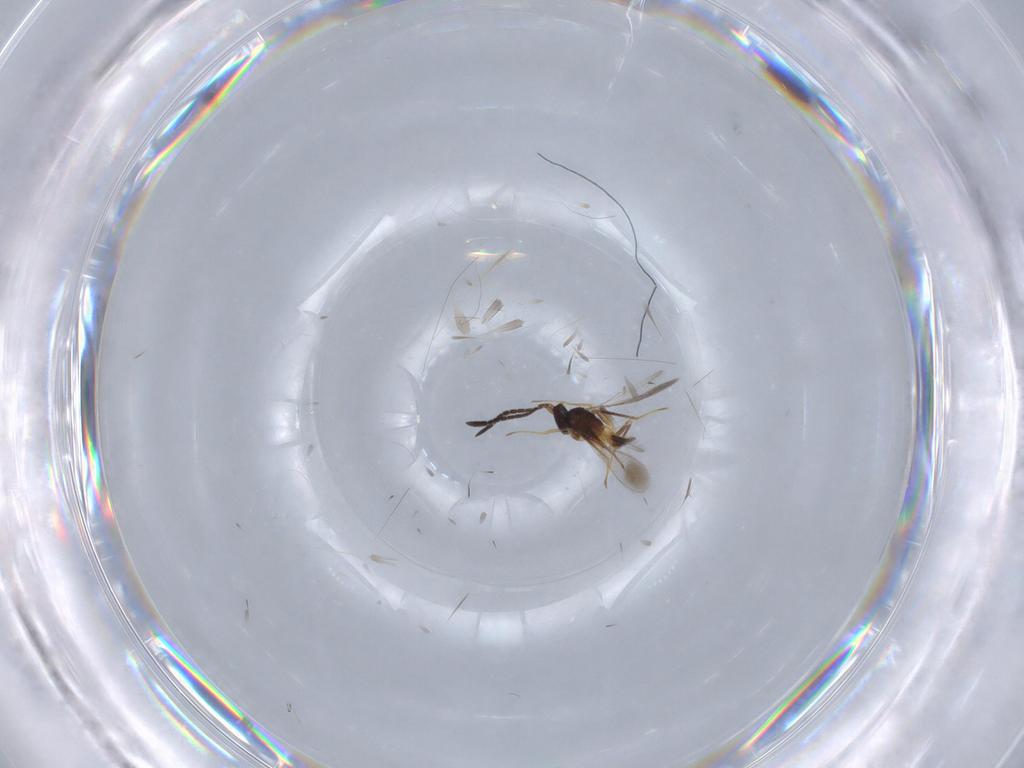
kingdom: Animalia
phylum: Arthropoda
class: Insecta
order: Hymenoptera
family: Mymaridae
